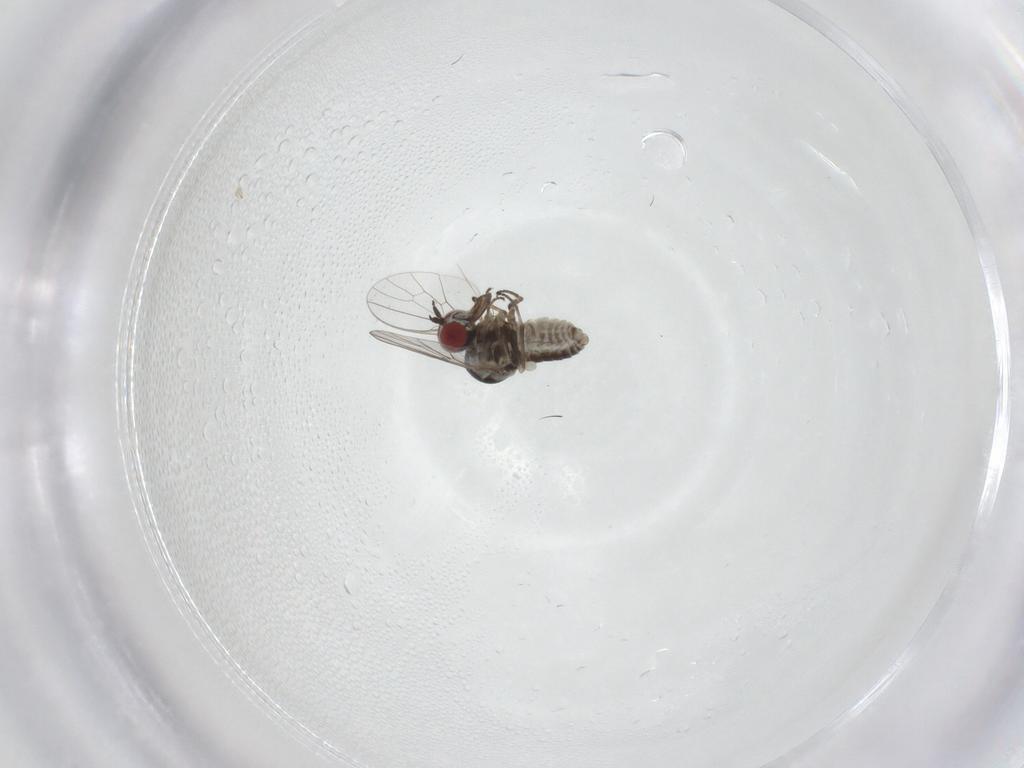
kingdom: Animalia
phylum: Arthropoda
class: Insecta
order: Diptera
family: Bombyliidae
